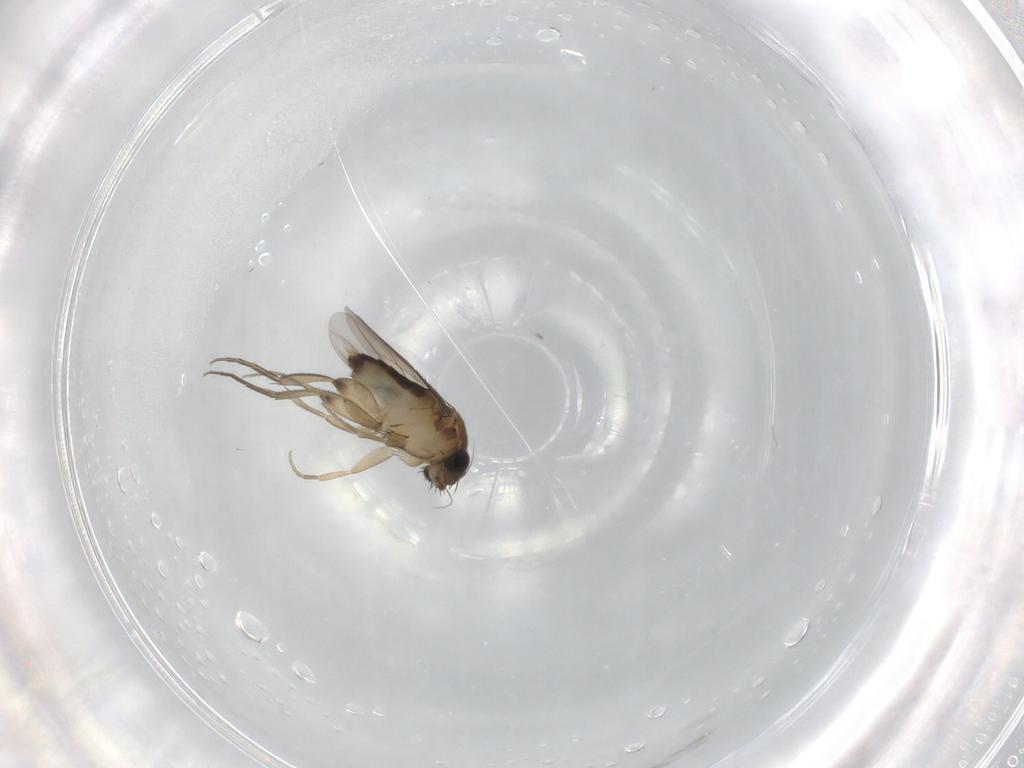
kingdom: Animalia
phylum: Arthropoda
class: Insecta
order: Diptera
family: Phoridae
